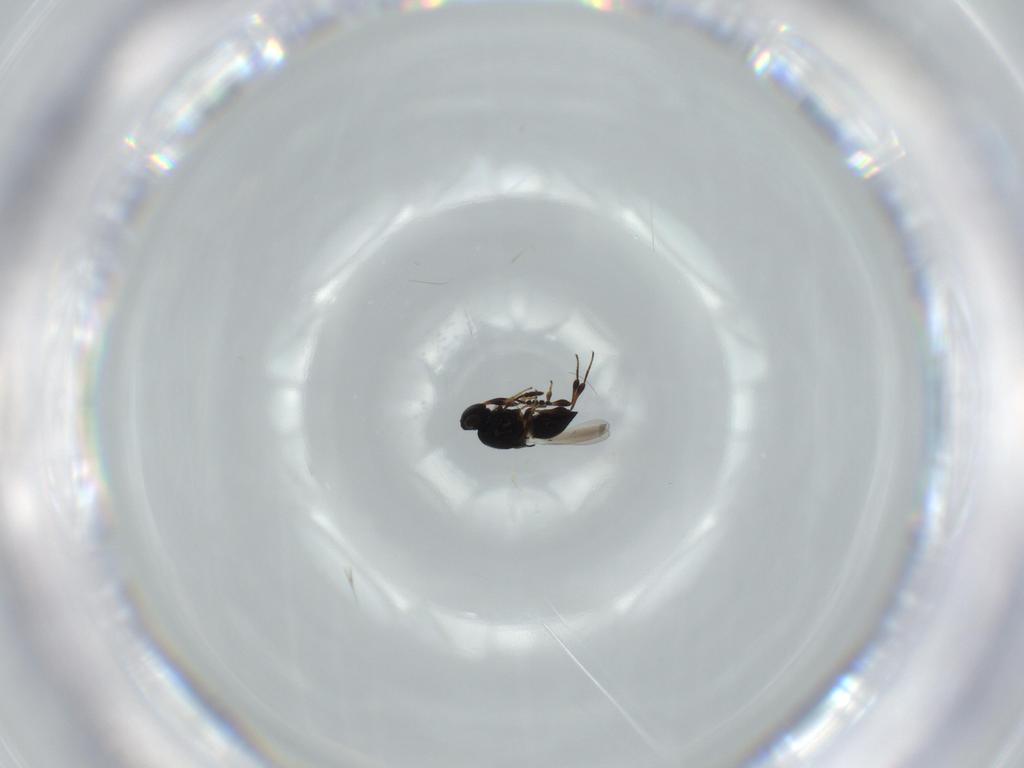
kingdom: Animalia
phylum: Arthropoda
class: Insecta
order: Hymenoptera
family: Platygastridae
